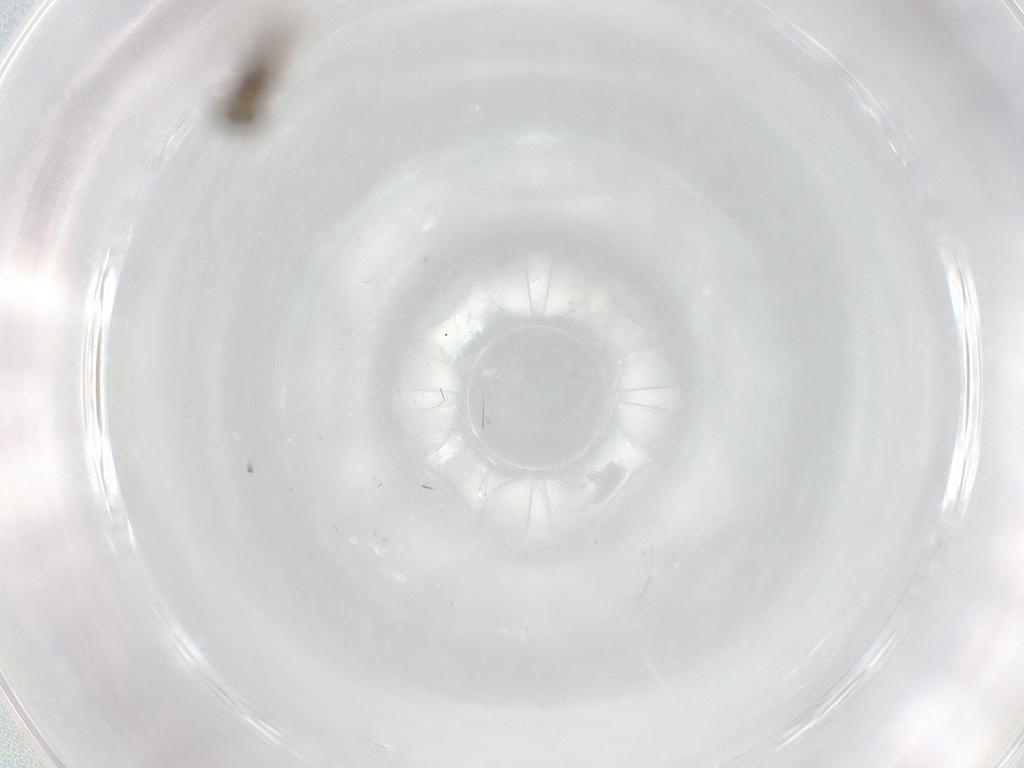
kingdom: Animalia
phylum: Arthropoda
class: Insecta
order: Diptera
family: Chironomidae
